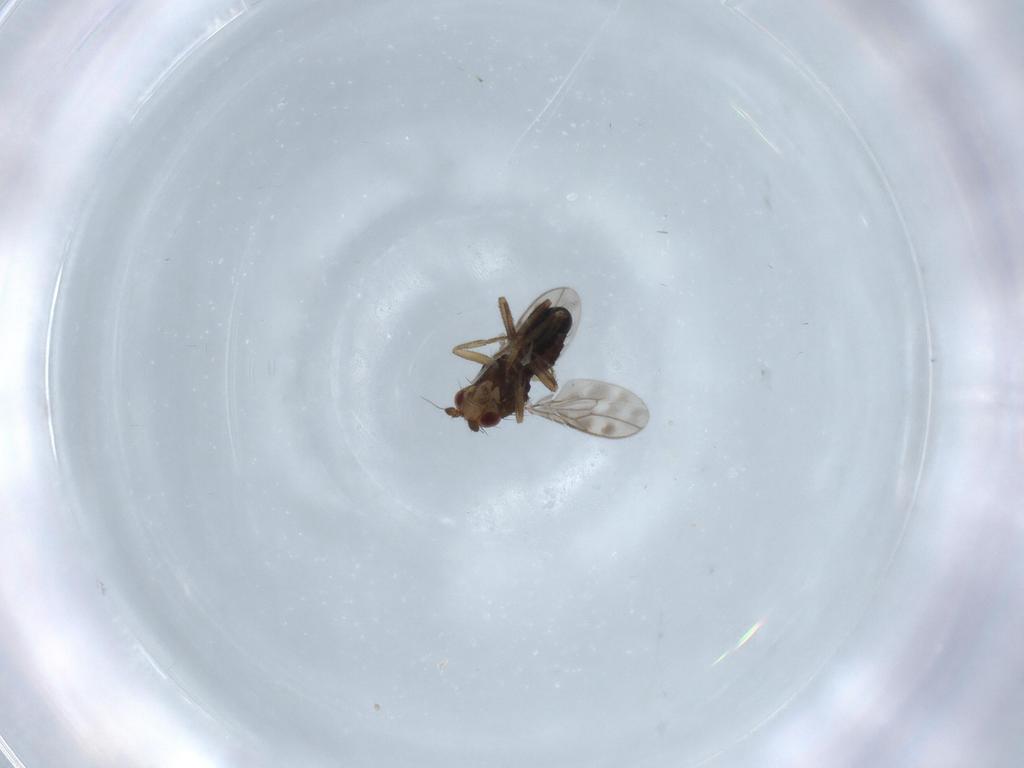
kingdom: Animalia
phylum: Arthropoda
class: Insecta
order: Diptera
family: Sphaeroceridae
